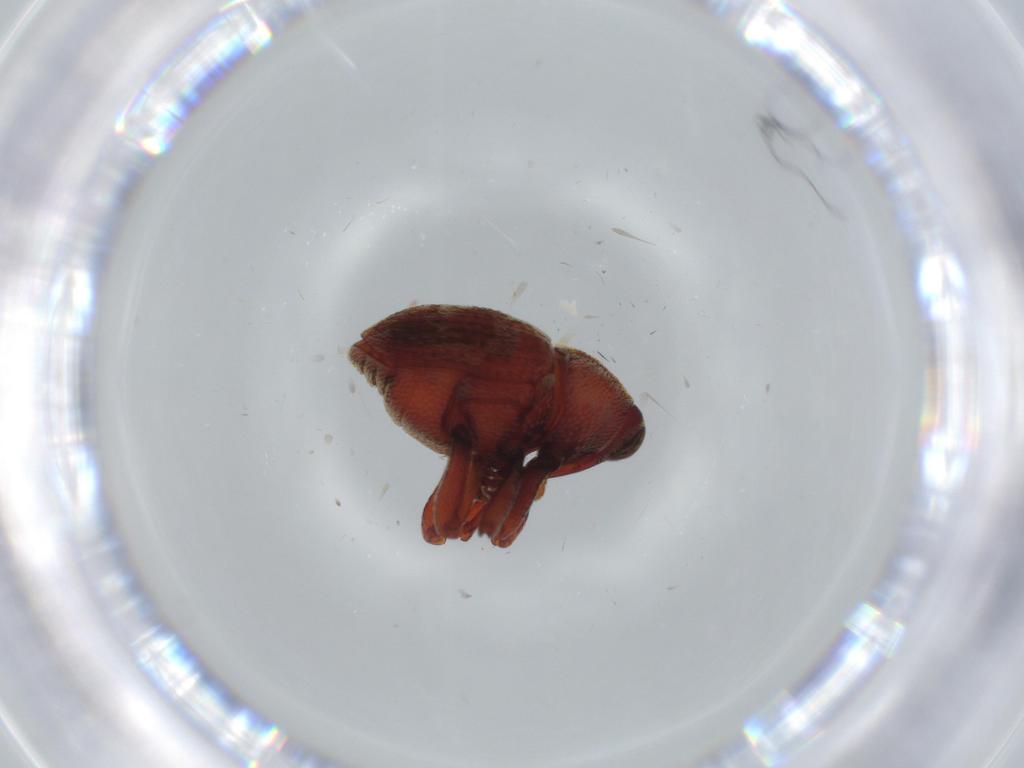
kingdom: Animalia
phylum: Arthropoda
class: Insecta
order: Coleoptera
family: Curculionidae
